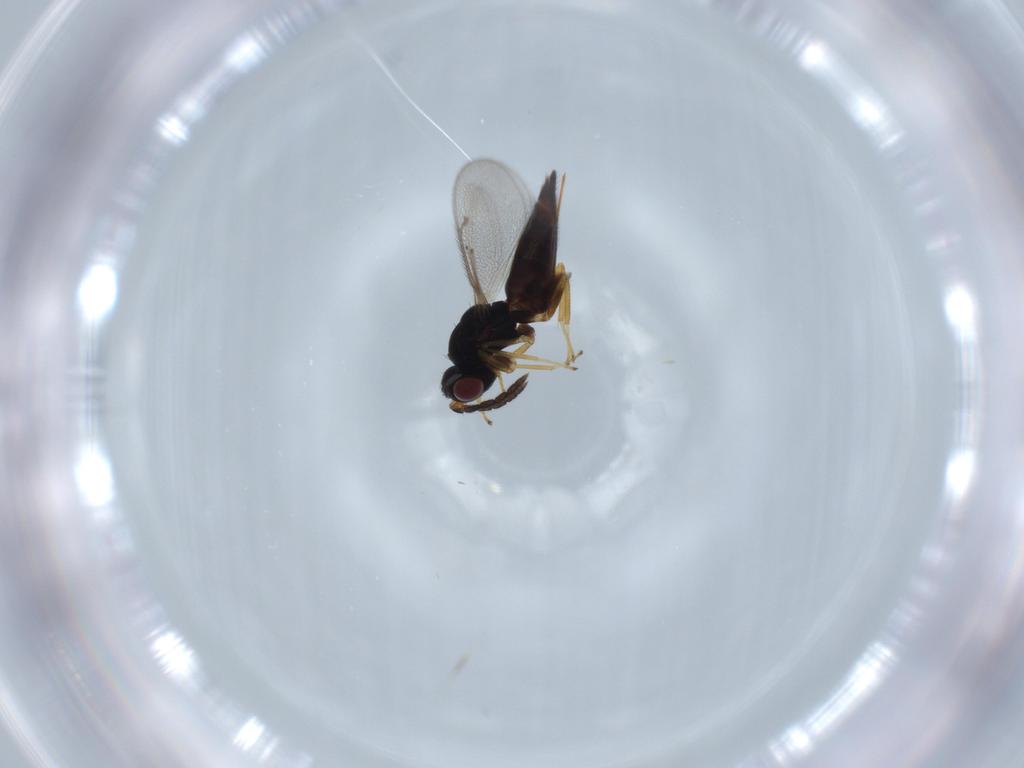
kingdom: Animalia
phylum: Arthropoda
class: Insecta
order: Hymenoptera
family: Eulophidae
